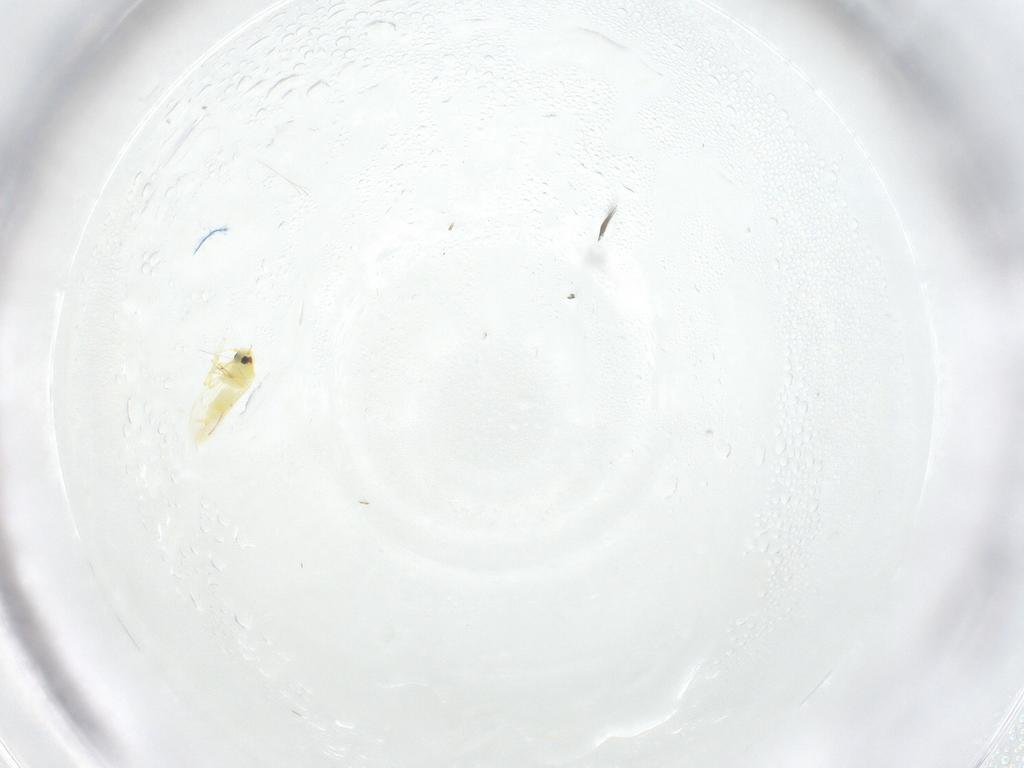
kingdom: Animalia
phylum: Arthropoda
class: Insecta
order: Hemiptera
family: Aleyrodidae
